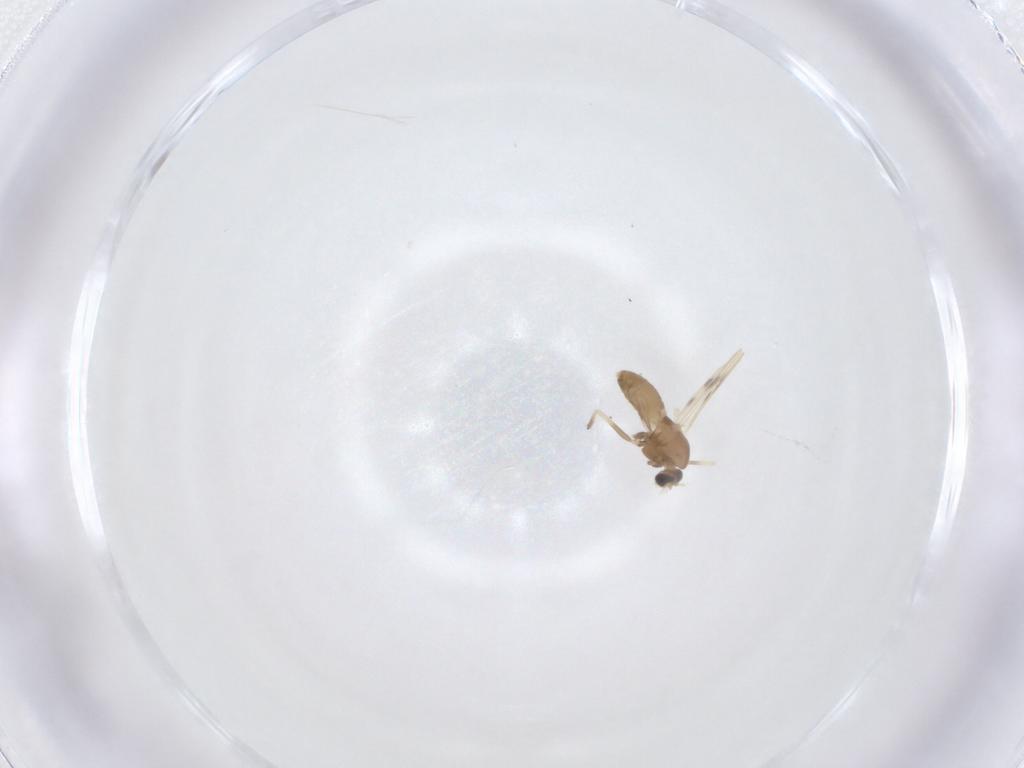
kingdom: Animalia
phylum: Arthropoda
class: Insecta
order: Diptera
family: Chironomidae
